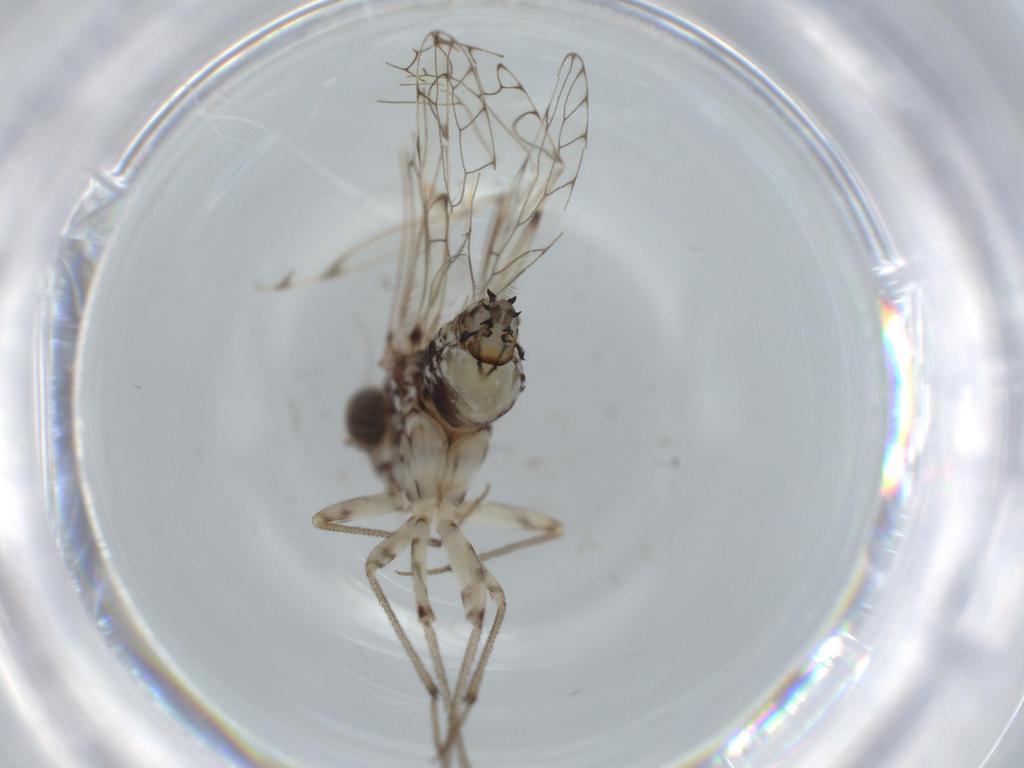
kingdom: Animalia
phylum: Arthropoda
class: Insecta
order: Psocodea
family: Liposcelididae
